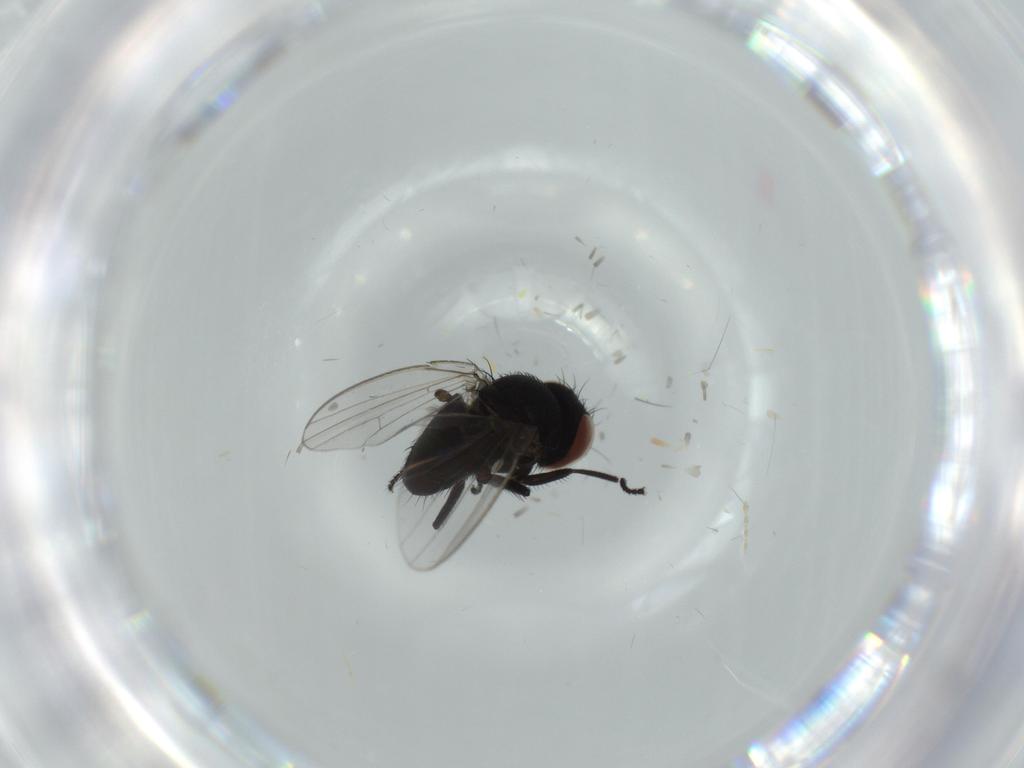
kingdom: Animalia
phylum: Arthropoda
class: Insecta
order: Diptera
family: Milichiidae
